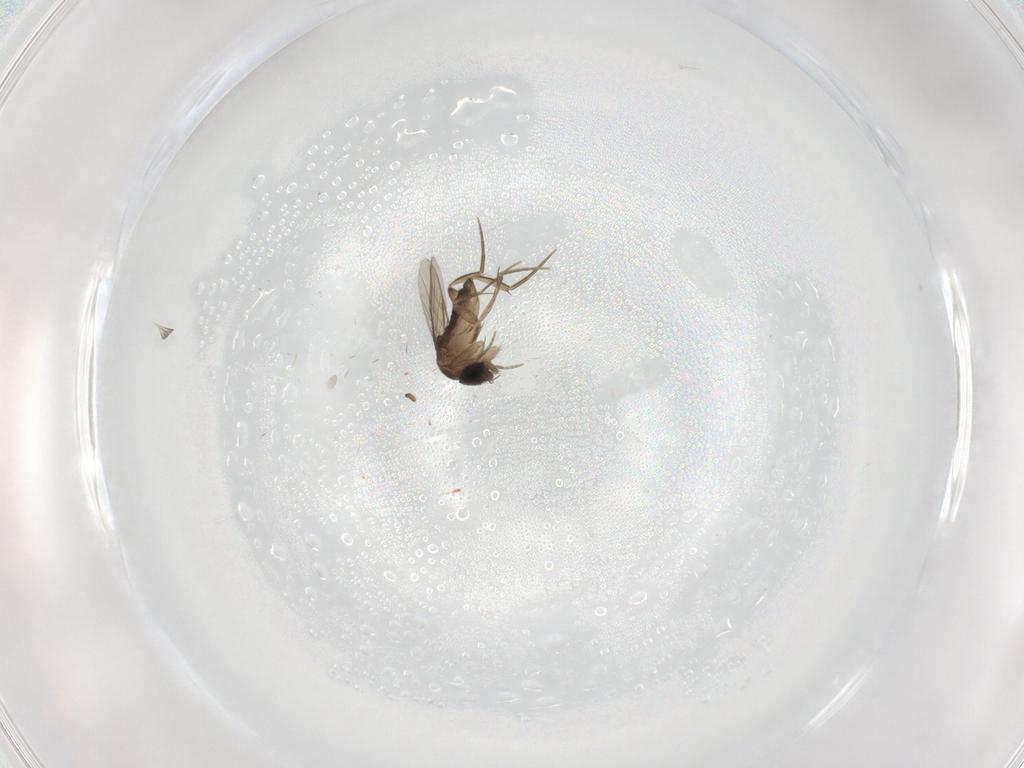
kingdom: Animalia
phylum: Arthropoda
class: Insecta
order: Diptera
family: Phoridae
